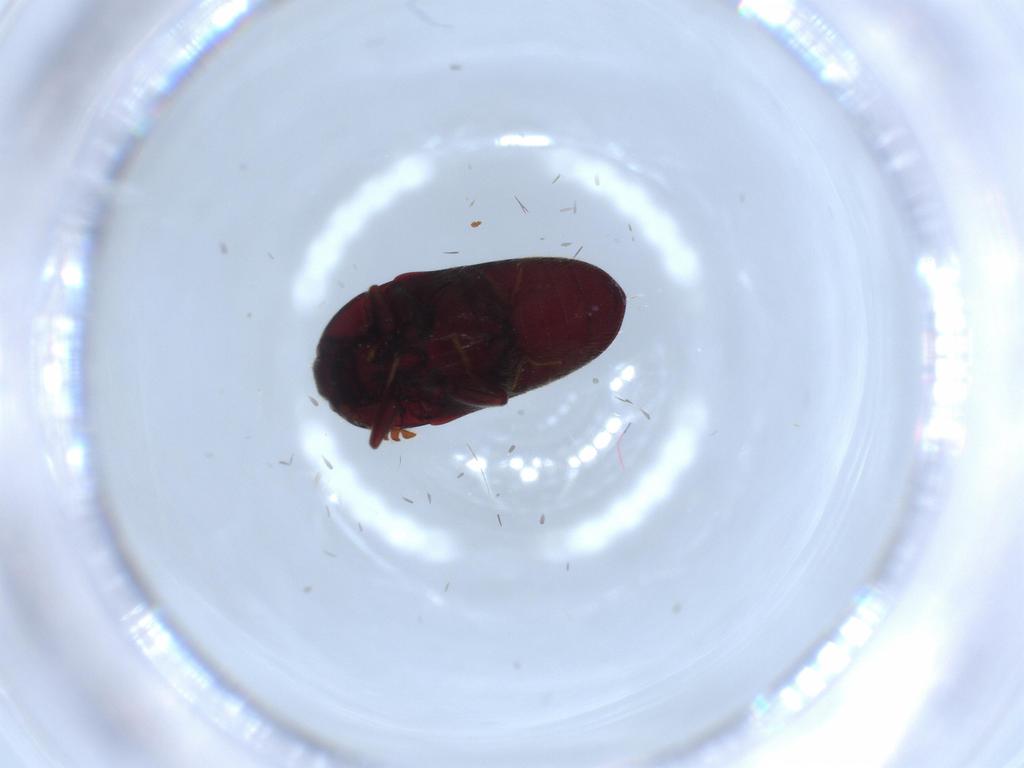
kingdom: Animalia
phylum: Arthropoda
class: Insecta
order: Coleoptera
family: Throscidae
